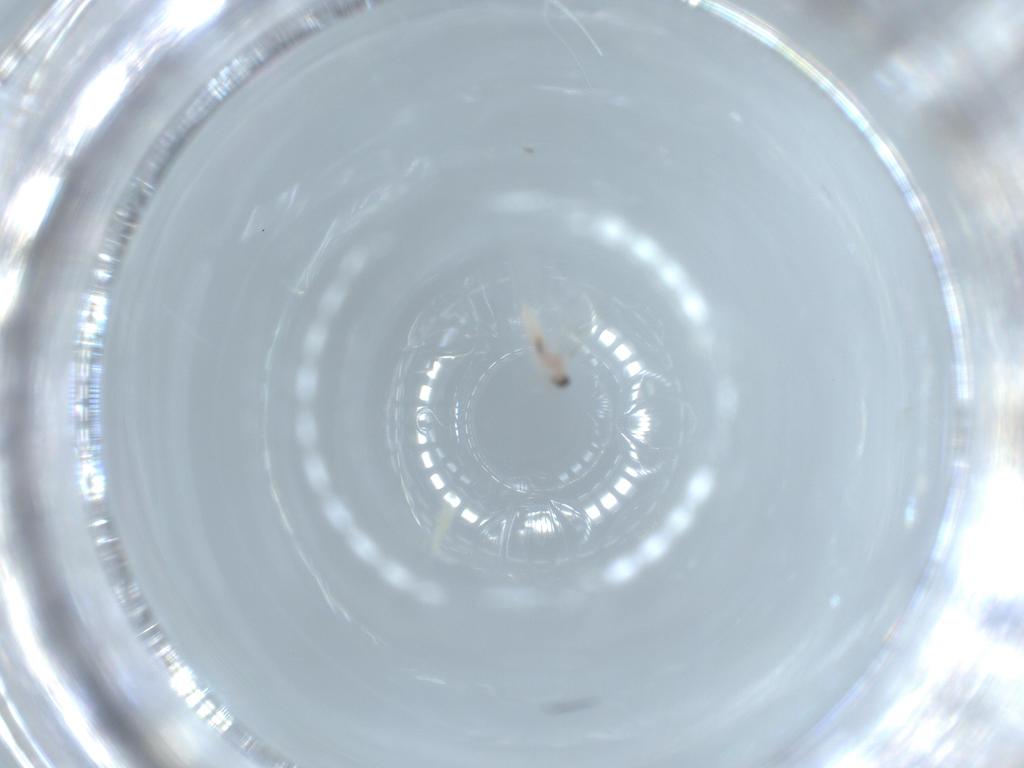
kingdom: Animalia
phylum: Arthropoda
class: Insecta
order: Diptera
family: Cecidomyiidae
